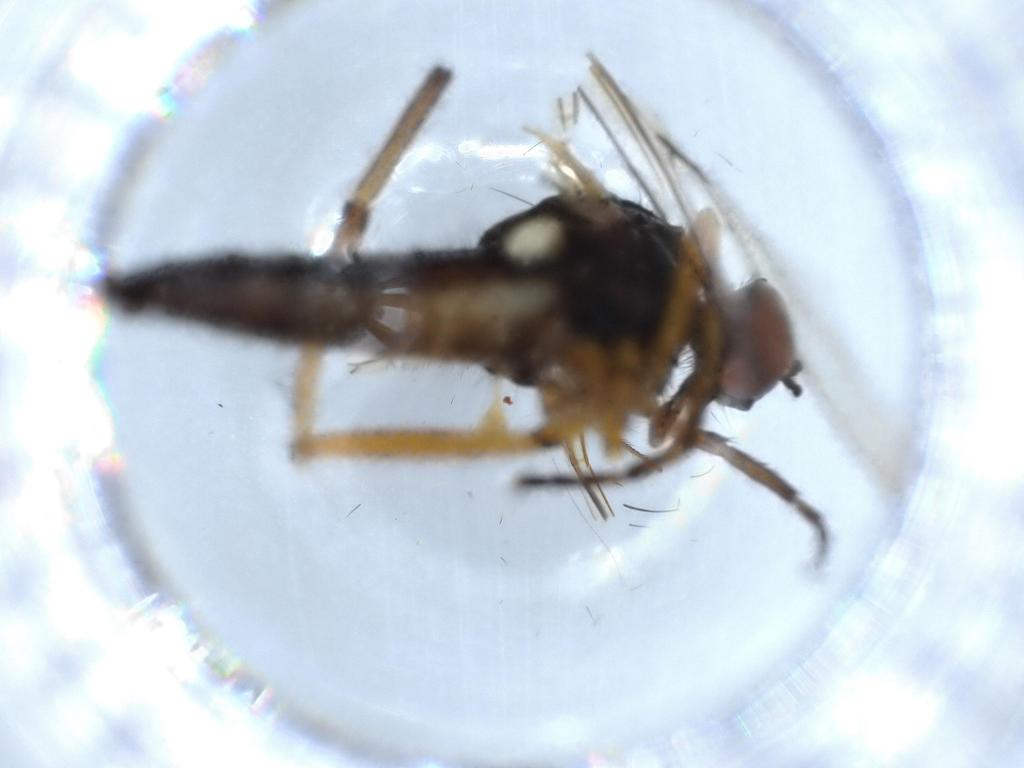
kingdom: Animalia
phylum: Arthropoda
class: Insecta
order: Diptera
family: Empididae
